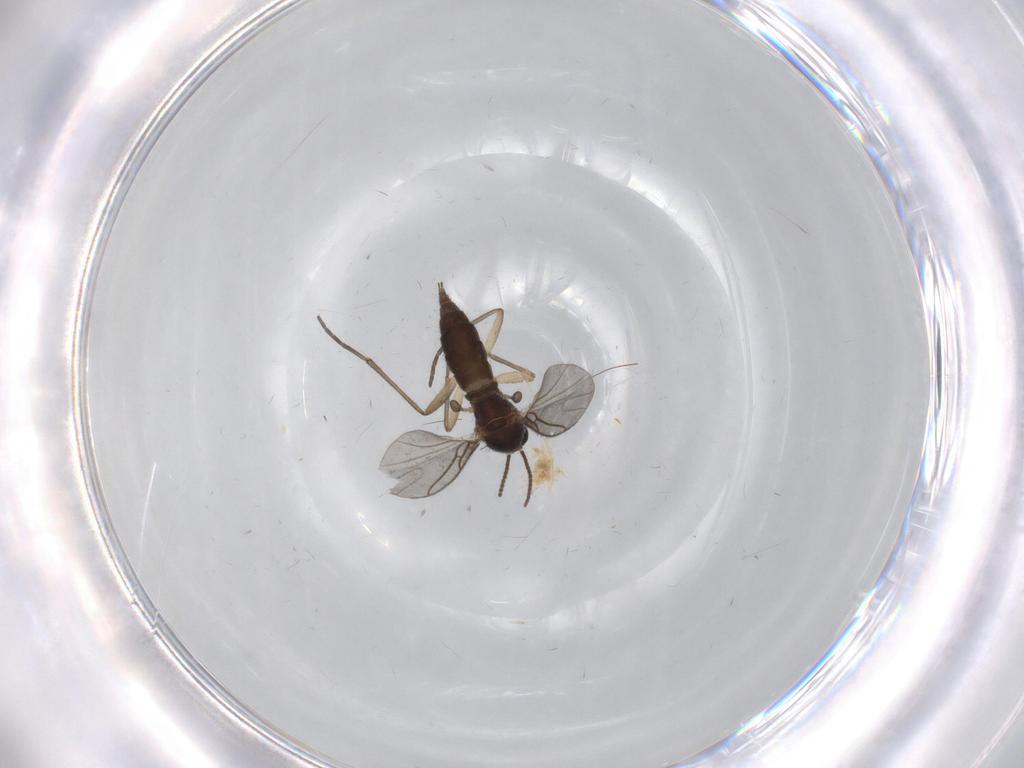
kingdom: Animalia
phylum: Arthropoda
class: Insecta
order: Diptera
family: Sciaridae
